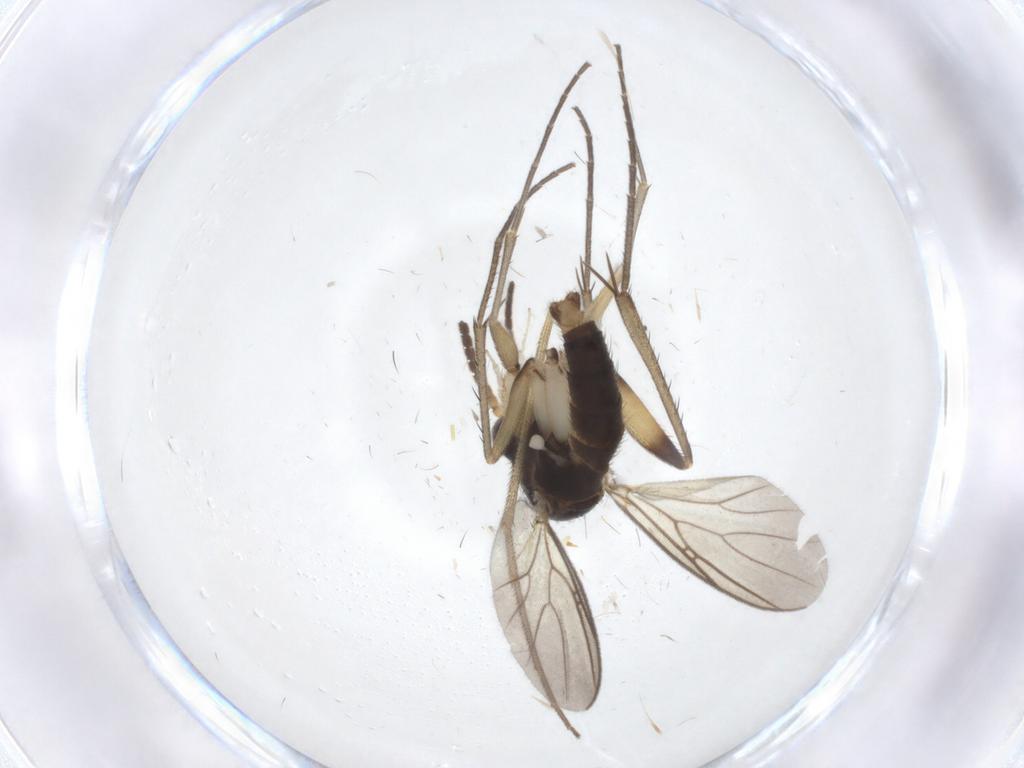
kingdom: Animalia
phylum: Arthropoda
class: Insecta
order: Diptera
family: Dolichopodidae
